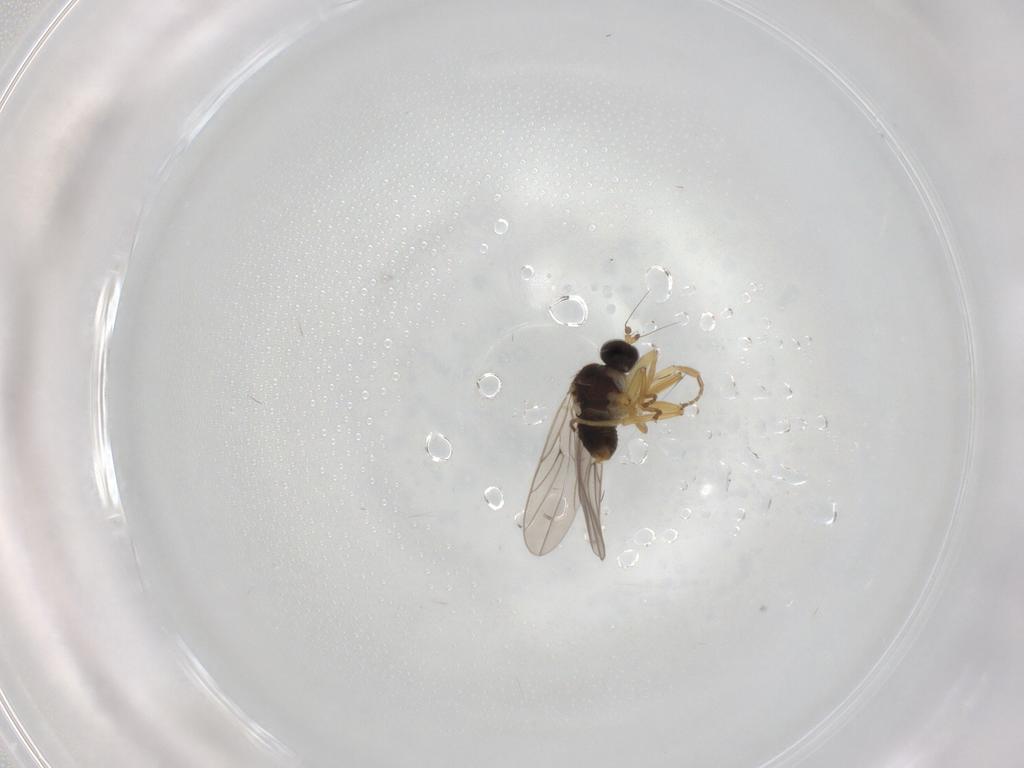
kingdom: Animalia
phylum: Arthropoda
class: Insecta
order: Diptera
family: Hybotidae
